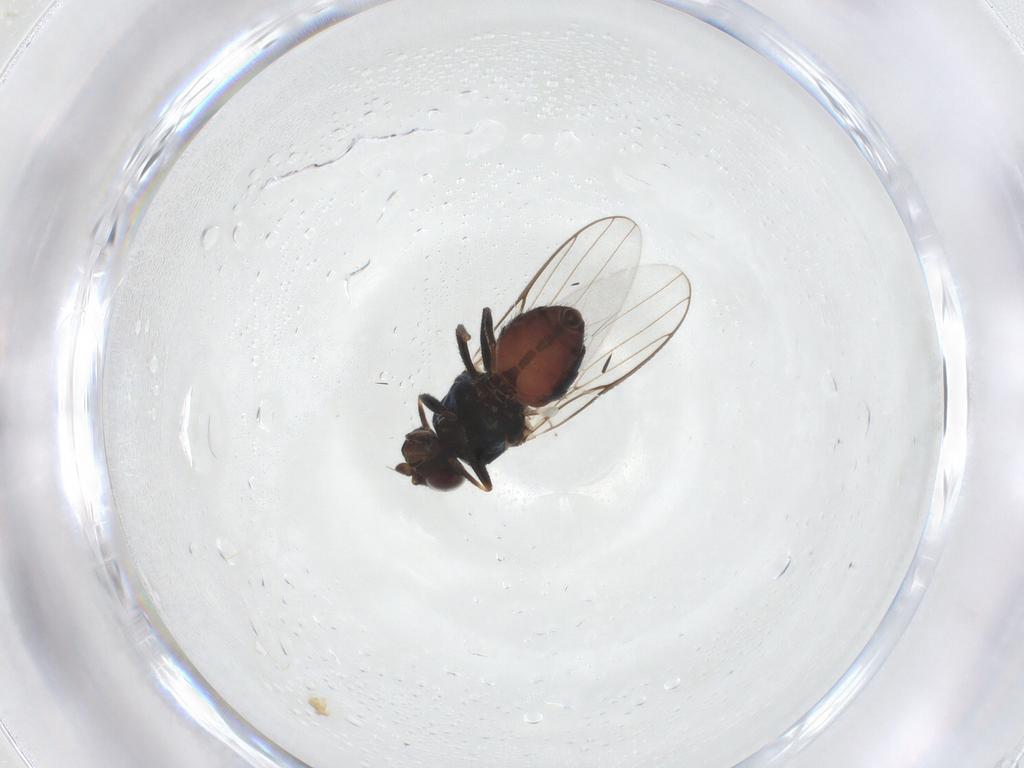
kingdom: Animalia
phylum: Arthropoda
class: Insecta
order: Diptera
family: Chloropidae
